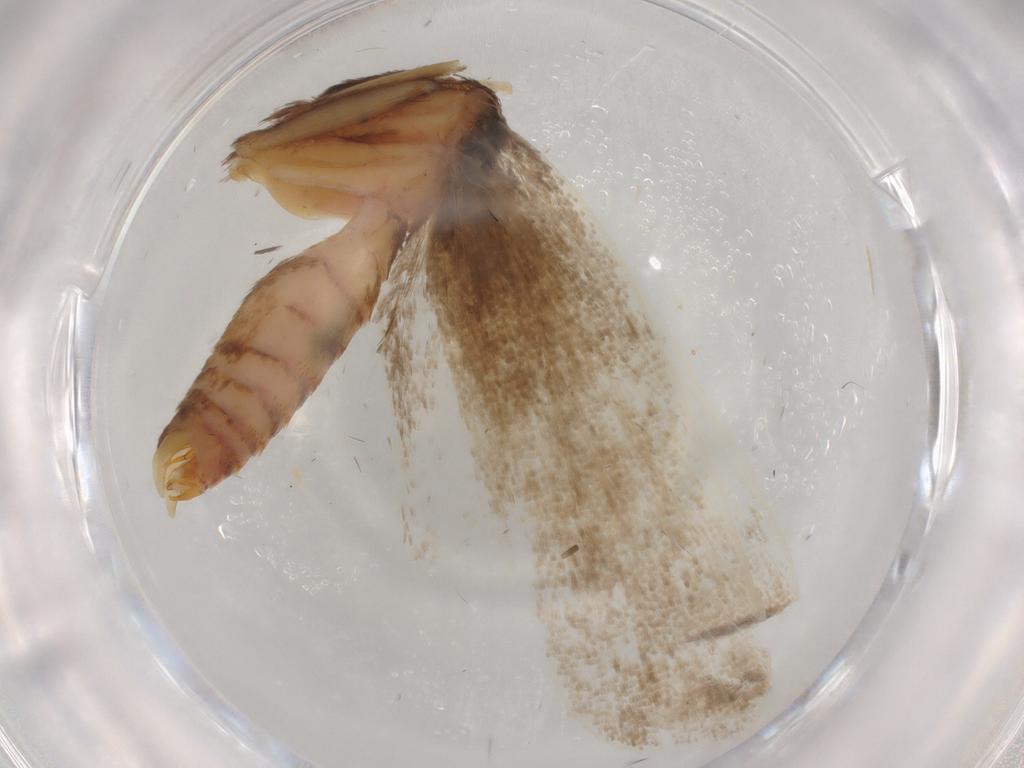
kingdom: Animalia
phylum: Arthropoda
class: Insecta
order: Lepidoptera
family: Lecithoceridae
